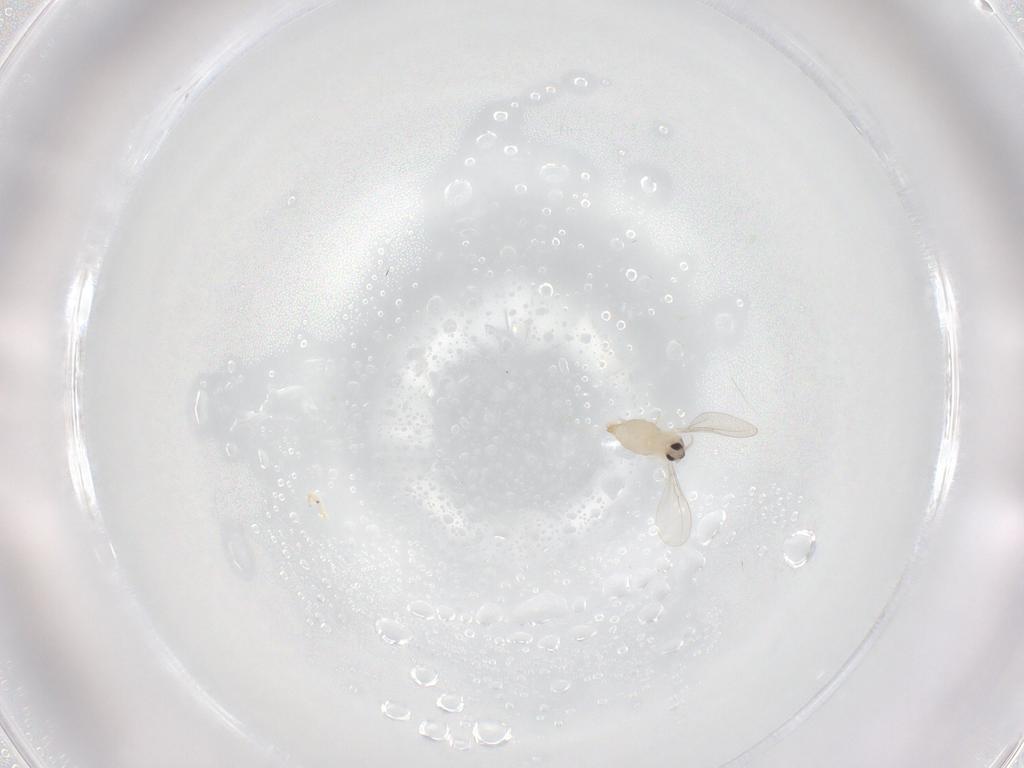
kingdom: Animalia
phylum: Arthropoda
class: Insecta
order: Diptera
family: Cecidomyiidae
